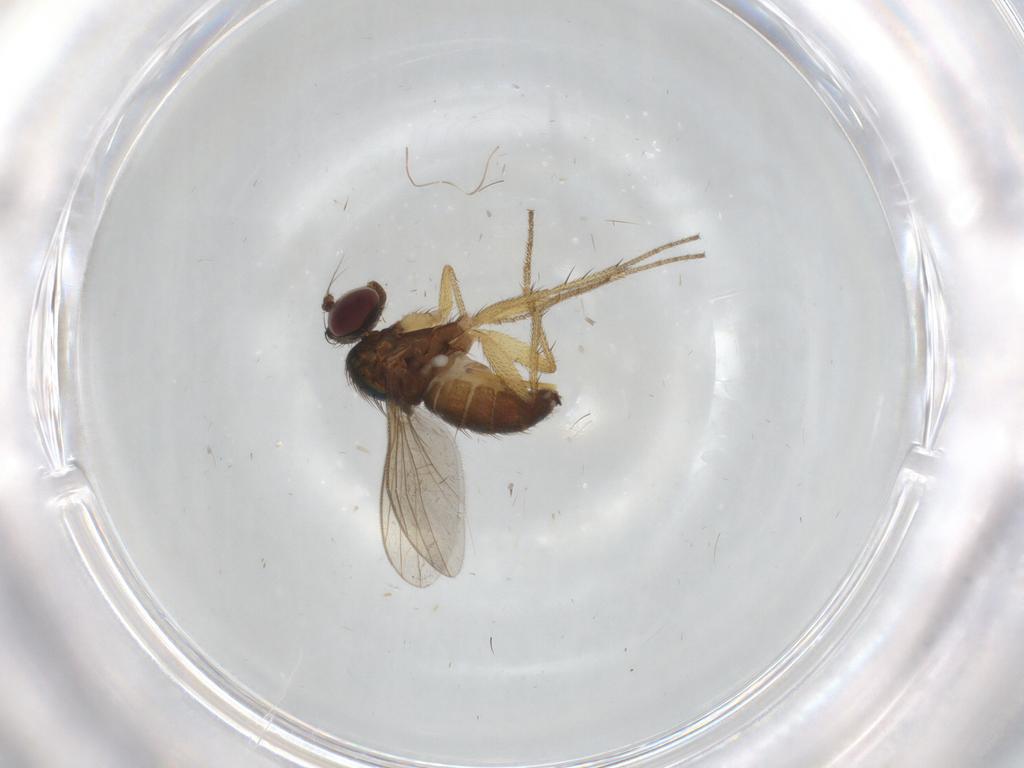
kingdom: Animalia
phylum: Arthropoda
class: Insecta
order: Diptera
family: Dolichopodidae
